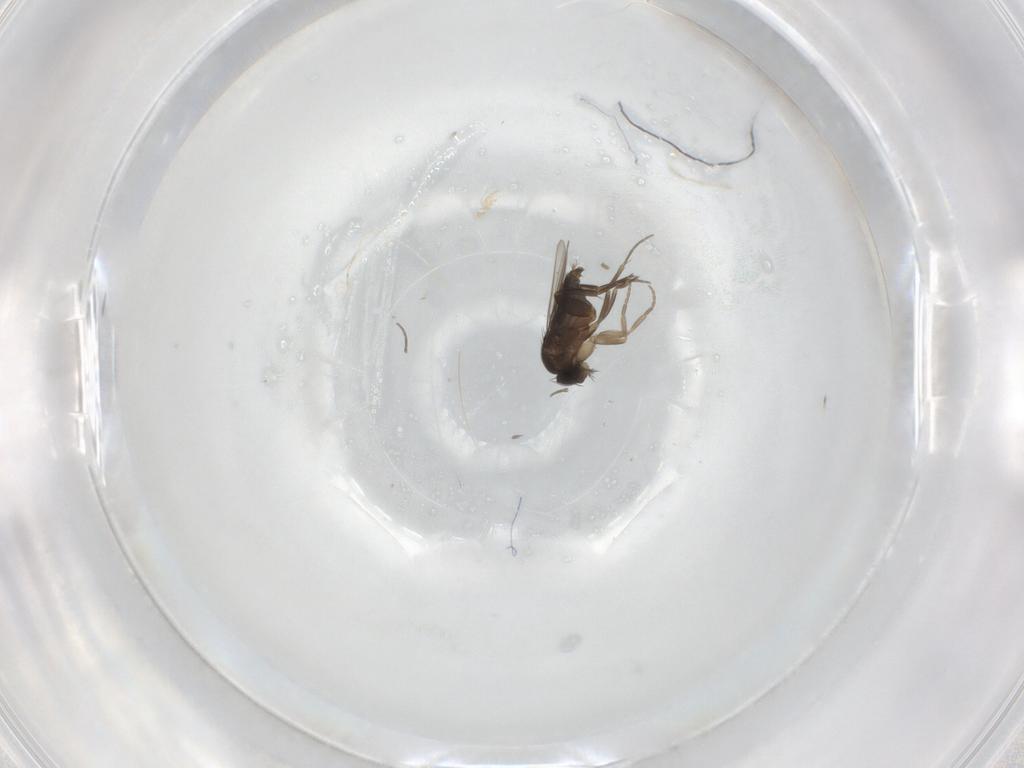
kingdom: Animalia
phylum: Arthropoda
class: Insecta
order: Diptera
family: Phoridae
